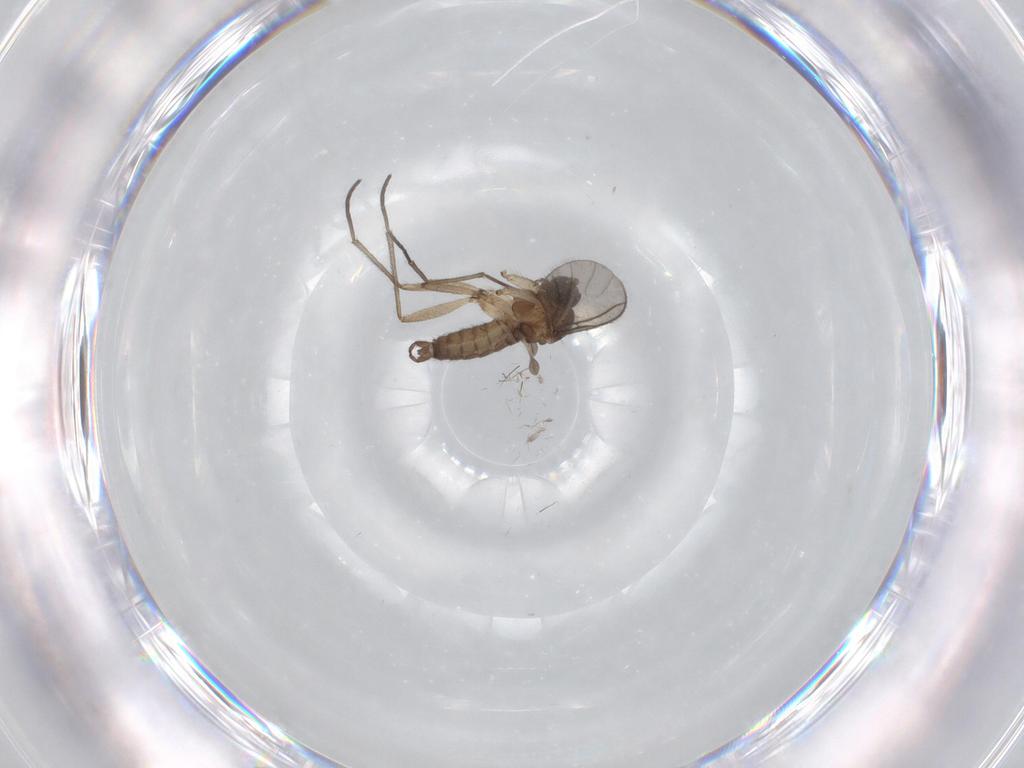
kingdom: Animalia
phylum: Arthropoda
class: Insecta
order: Diptera
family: Sciaridae
